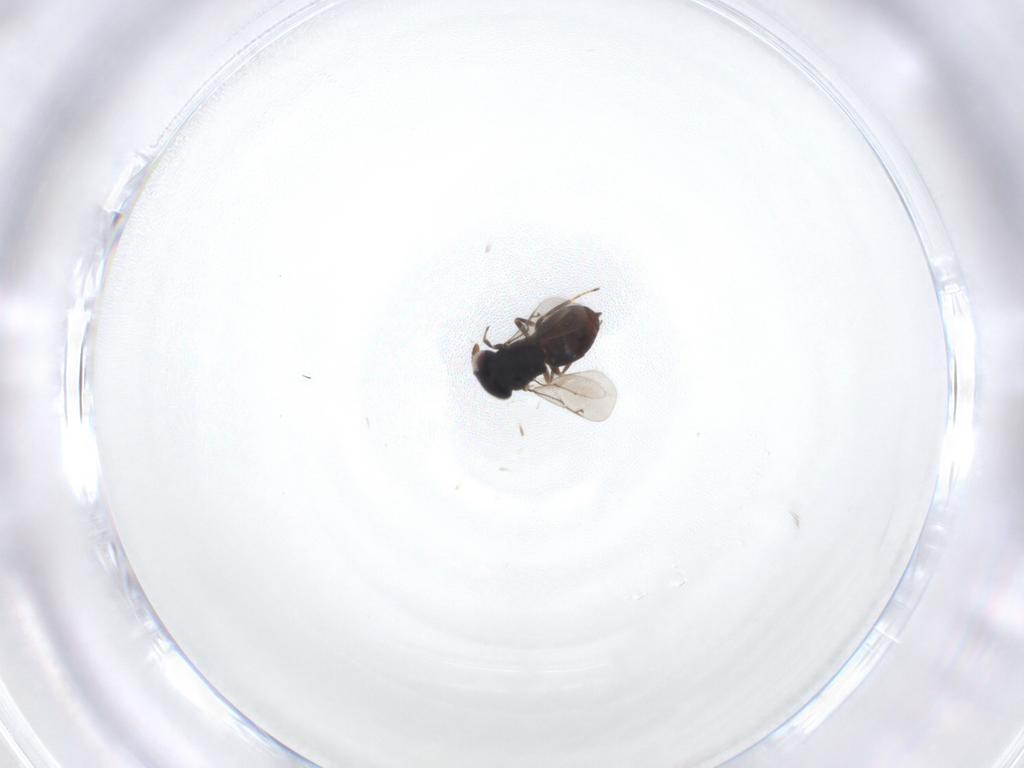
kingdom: Animalia
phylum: Arthropoda
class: Insecta
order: Hymenoptera
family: Eunotidae
